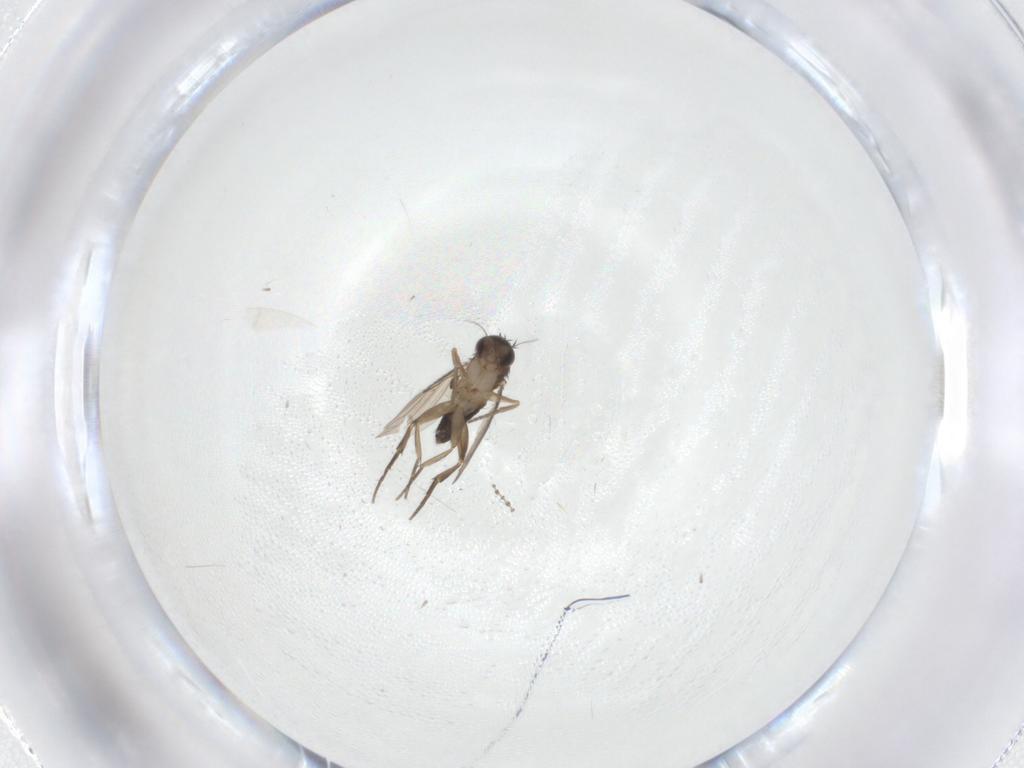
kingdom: Animalia
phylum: Arthropoda
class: Insecta
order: Diptera
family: Phoridae
